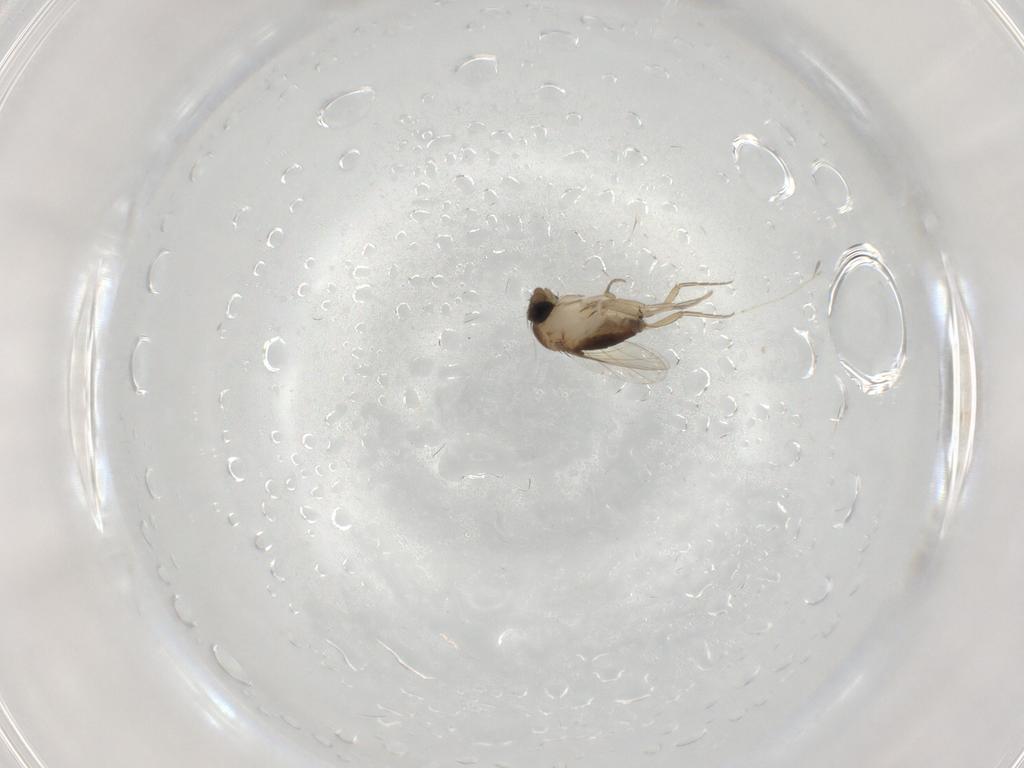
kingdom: Animalia
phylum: Arthropoda
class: Insecta
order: Diptera
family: Phoridae
